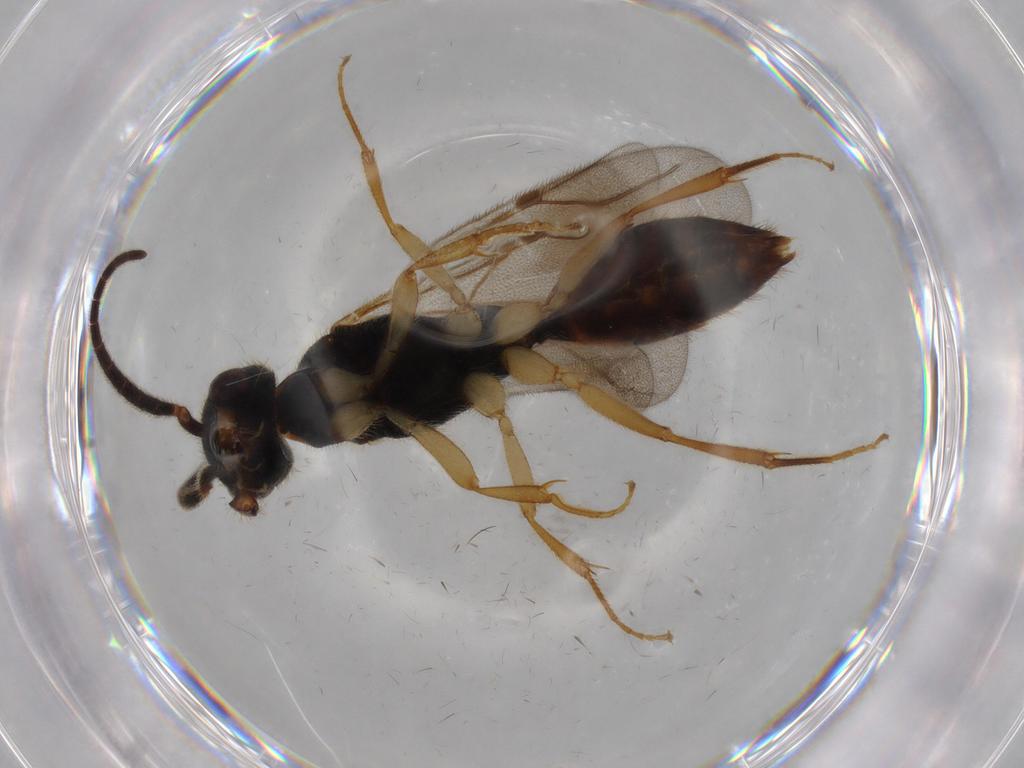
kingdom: Animalia
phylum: Arthropoda
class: Insecta
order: Hymenoptera
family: Bethylidae
